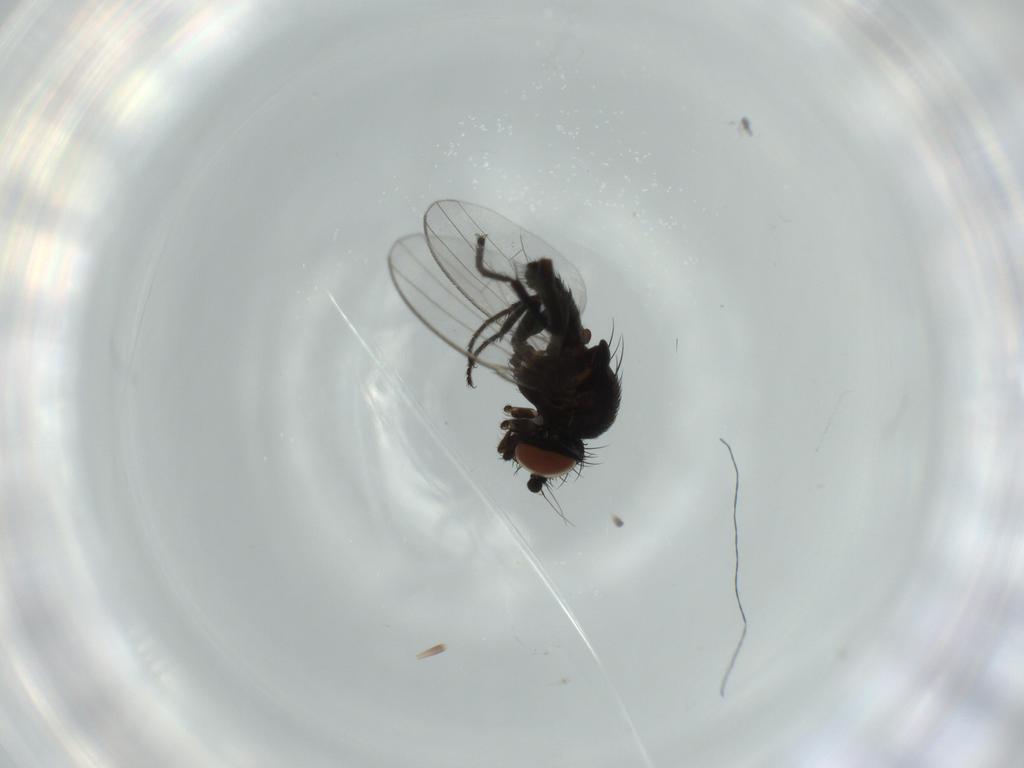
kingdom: Animalia
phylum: Arthropoda
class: Insecta
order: Diptera
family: Milichiidae
